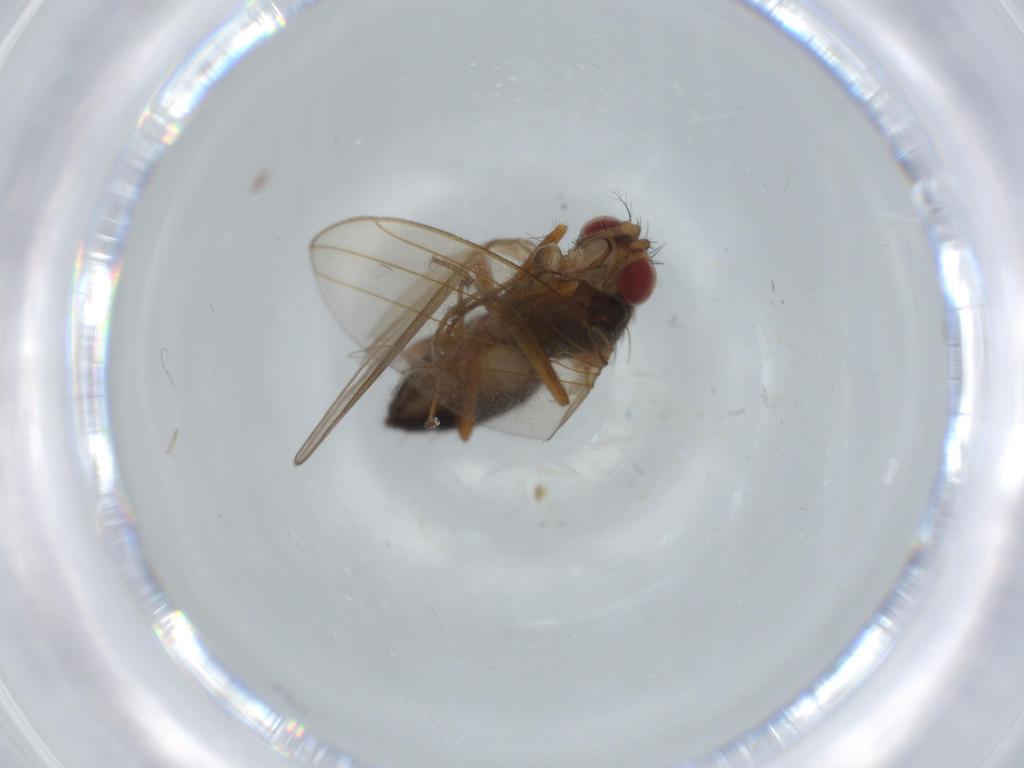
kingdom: Animalia
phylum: Arthropoda
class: Insecta
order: Diptera
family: Drosophilidae
